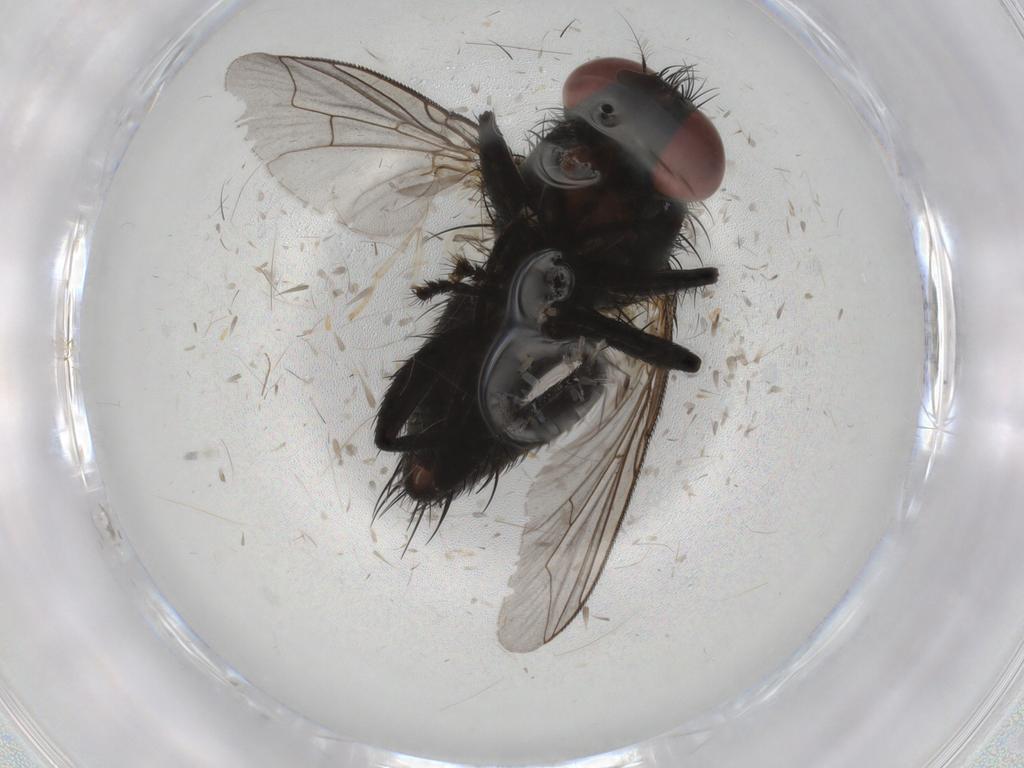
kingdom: Animalia
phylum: Arthropoda
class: Insecta
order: Diptera
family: Sarcophagidae
